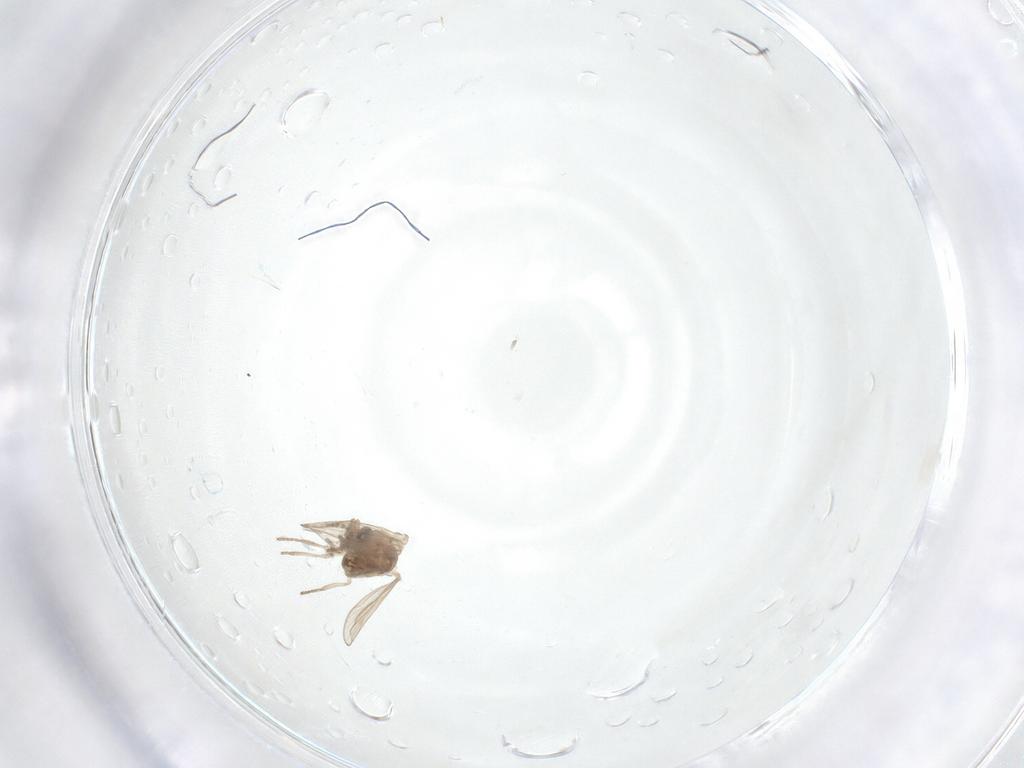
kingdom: Animalia
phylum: Arthropoda
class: Insecta
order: Diptera
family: Psychodidae
